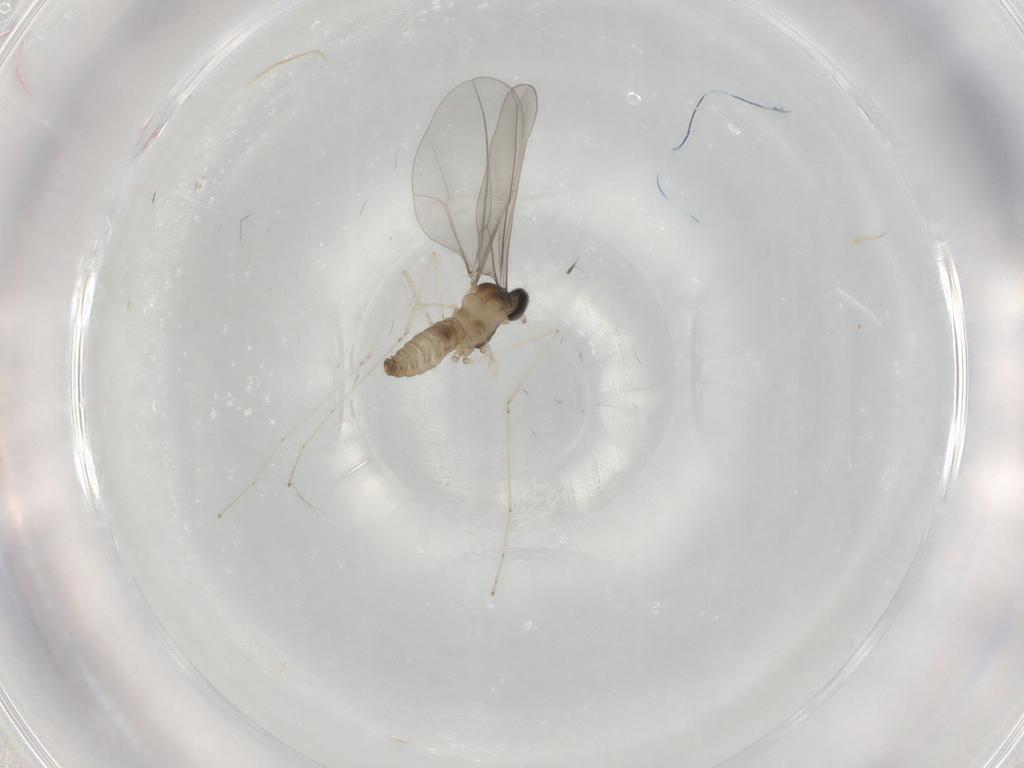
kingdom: Animalia
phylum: Arthropoda
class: Insecta
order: Diptera
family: Cecidomyiidae
